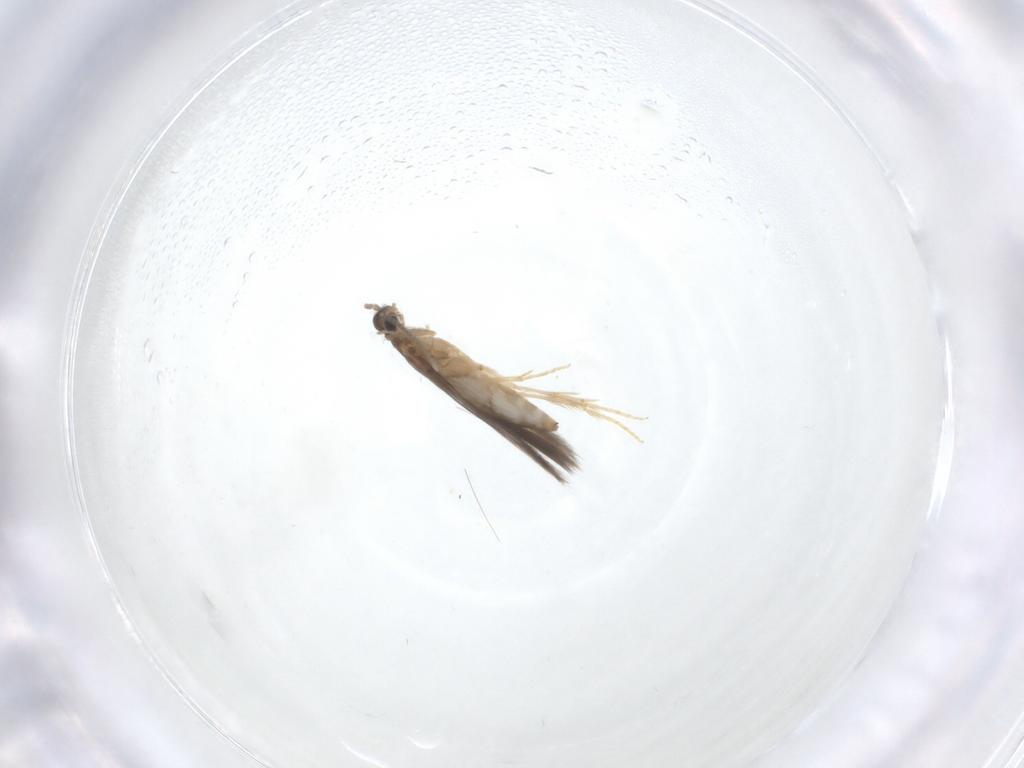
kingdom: Animalia
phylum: Arthropoda
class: Insecta
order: Trichoptera
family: Hydroptilidae
